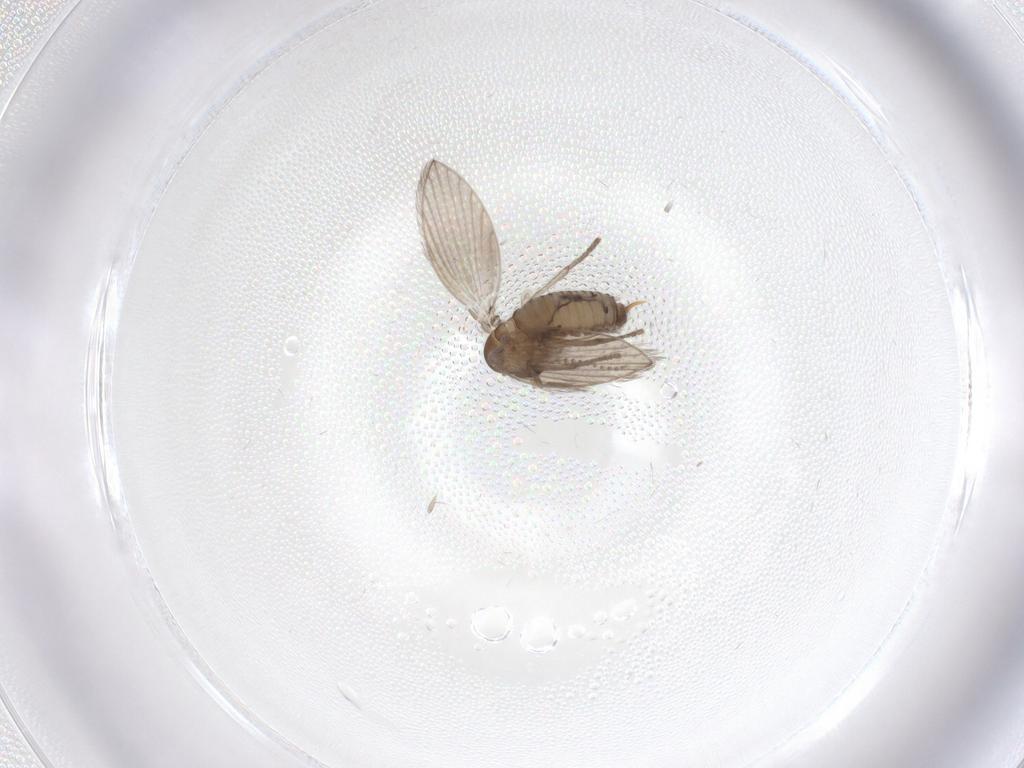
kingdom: Animalia
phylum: Arthropoda
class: Insecta
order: Diptera
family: Psychodidae
